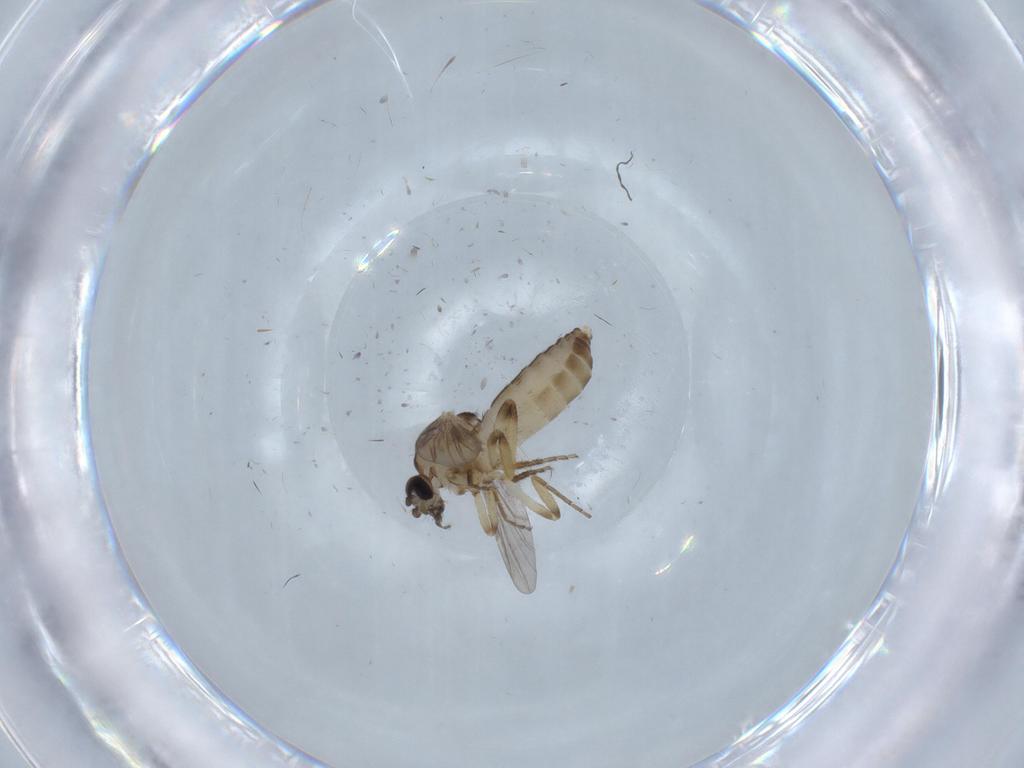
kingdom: Animalia
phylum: Arthropoda
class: Insecta
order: Diptera
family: Ceratopogonidae
